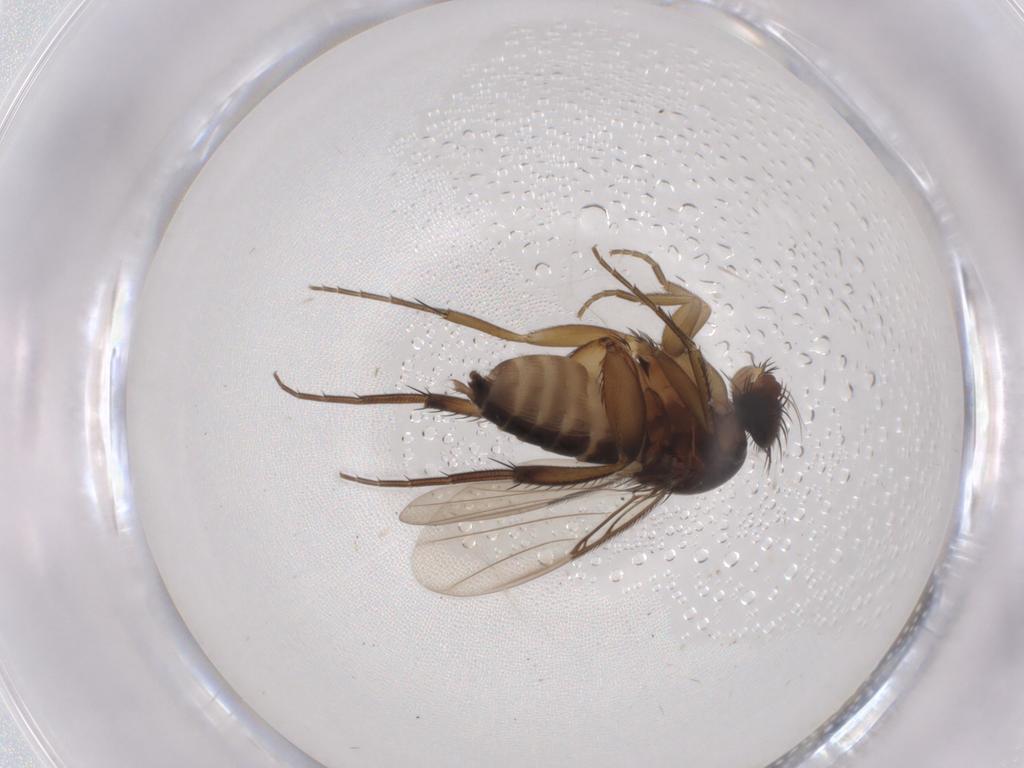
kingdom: Animalia
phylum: Arthropoda
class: Insecta
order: Diptera
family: Phoridae
